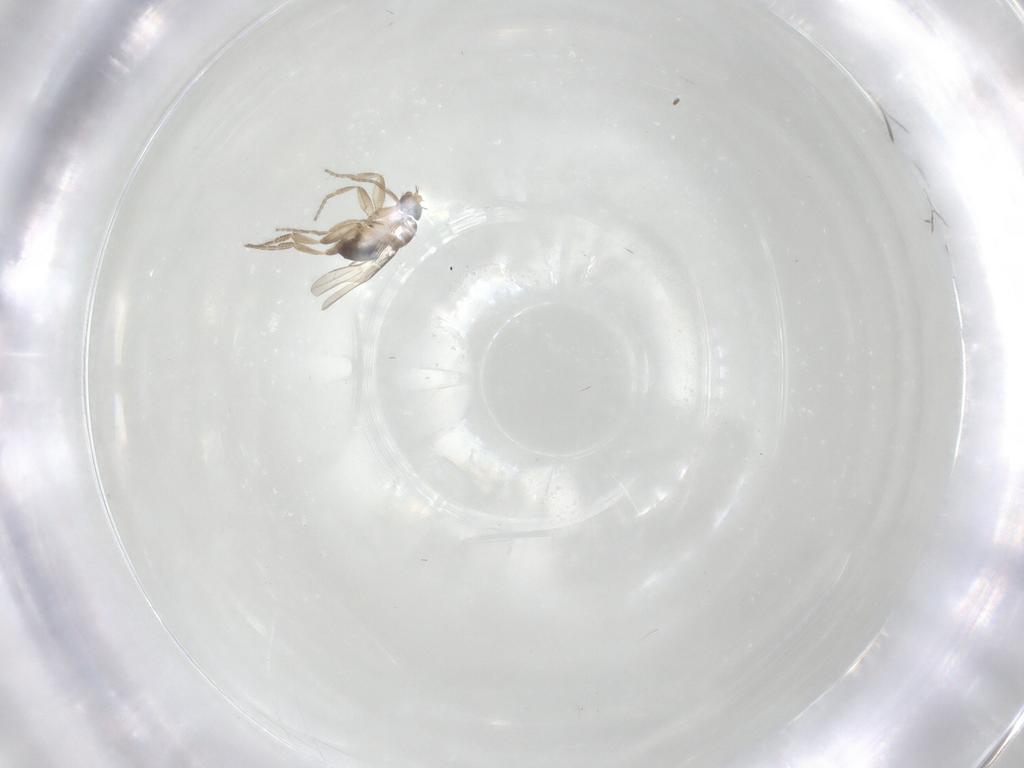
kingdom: Animalia
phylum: Arthropoda
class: Insecta
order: Diptera
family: Phoridae
